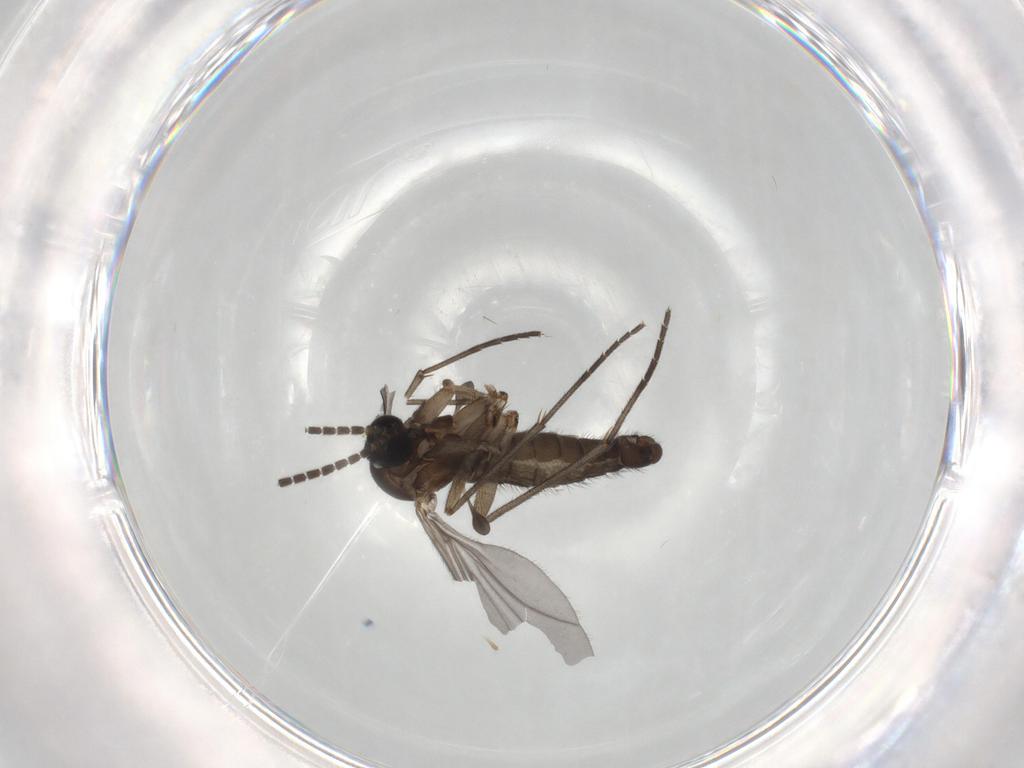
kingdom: Animalia
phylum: Arthropoda
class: Insecta
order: Diptera
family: Sciaridae
